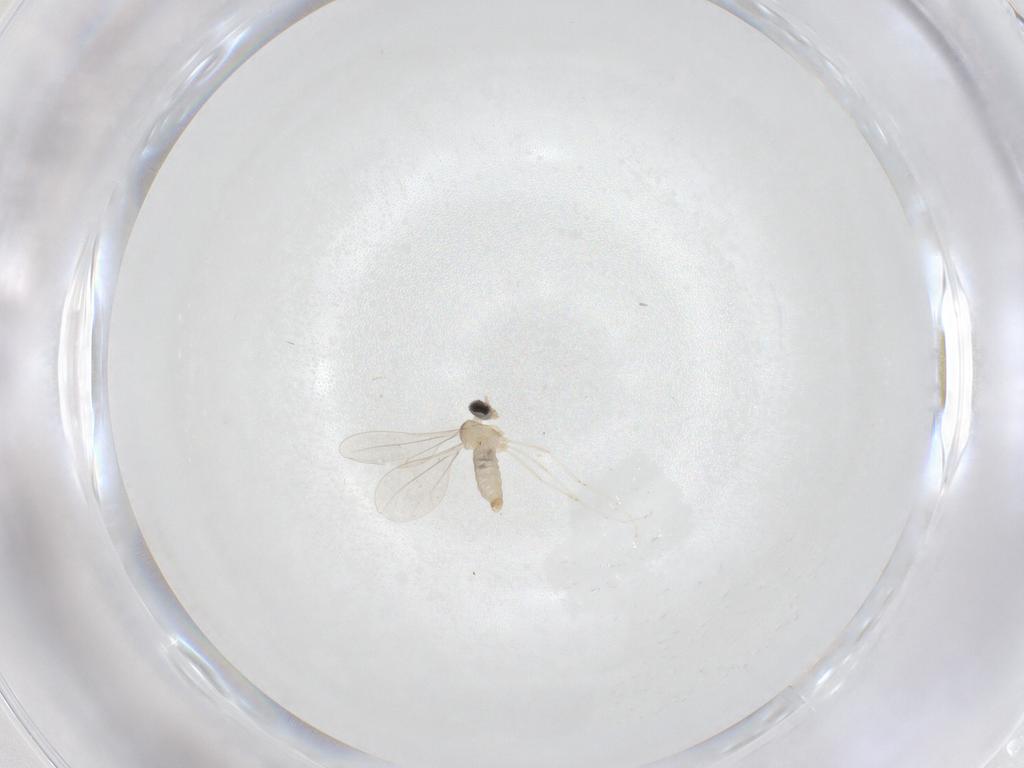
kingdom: Animalia
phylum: Arthropoda
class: Insecta
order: Diptera
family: Cecidomyiidae
